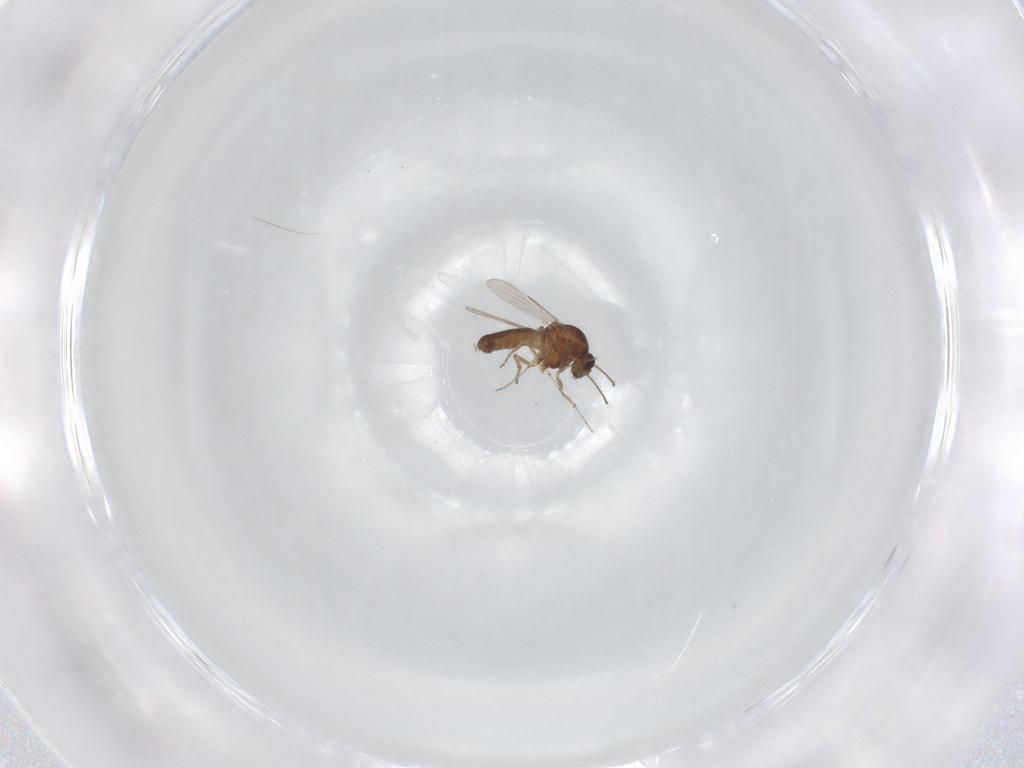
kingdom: Animalia
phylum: Arthropoda
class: Insecta
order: Diptera
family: Ceratopogonidae
